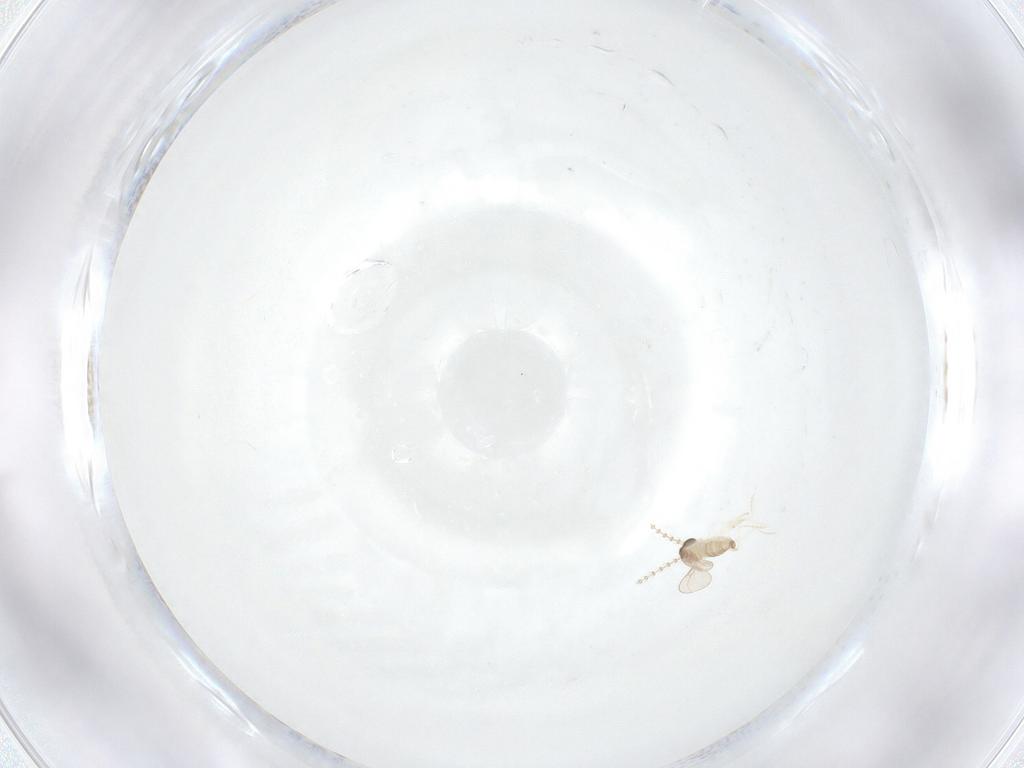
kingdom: Animalia
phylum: Arthropoda
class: Insecta
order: Diptera
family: Cecidomyiidae
